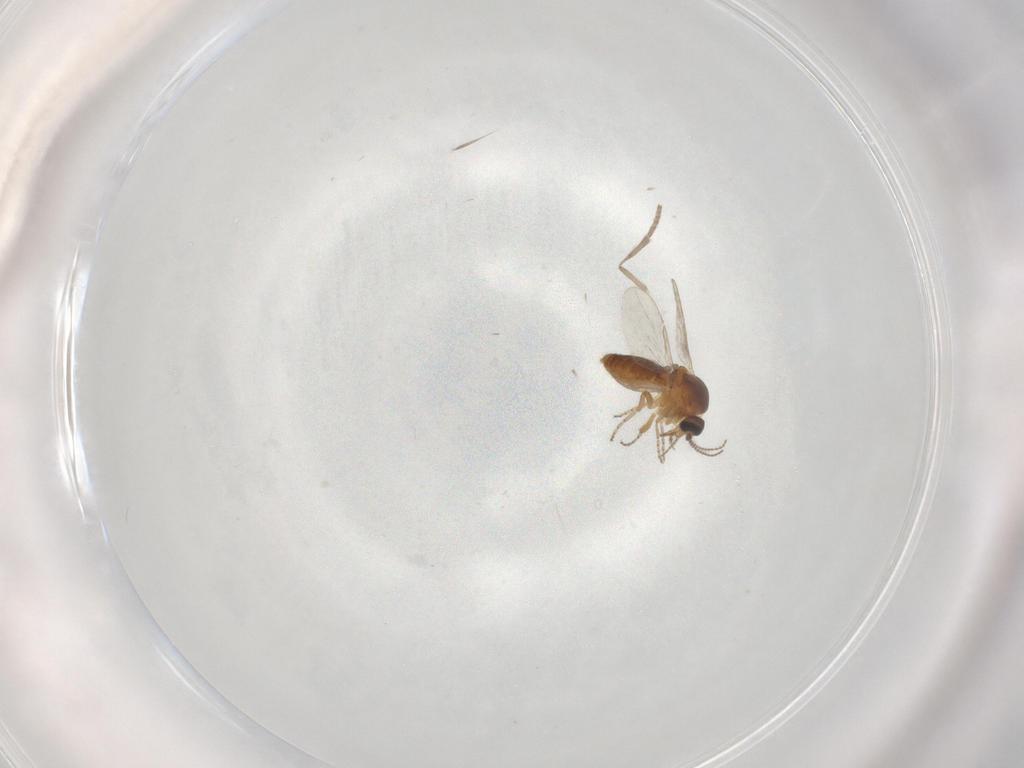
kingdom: Animalia
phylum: Arthropoda
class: Insecta
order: Diptera
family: Psychodidae
